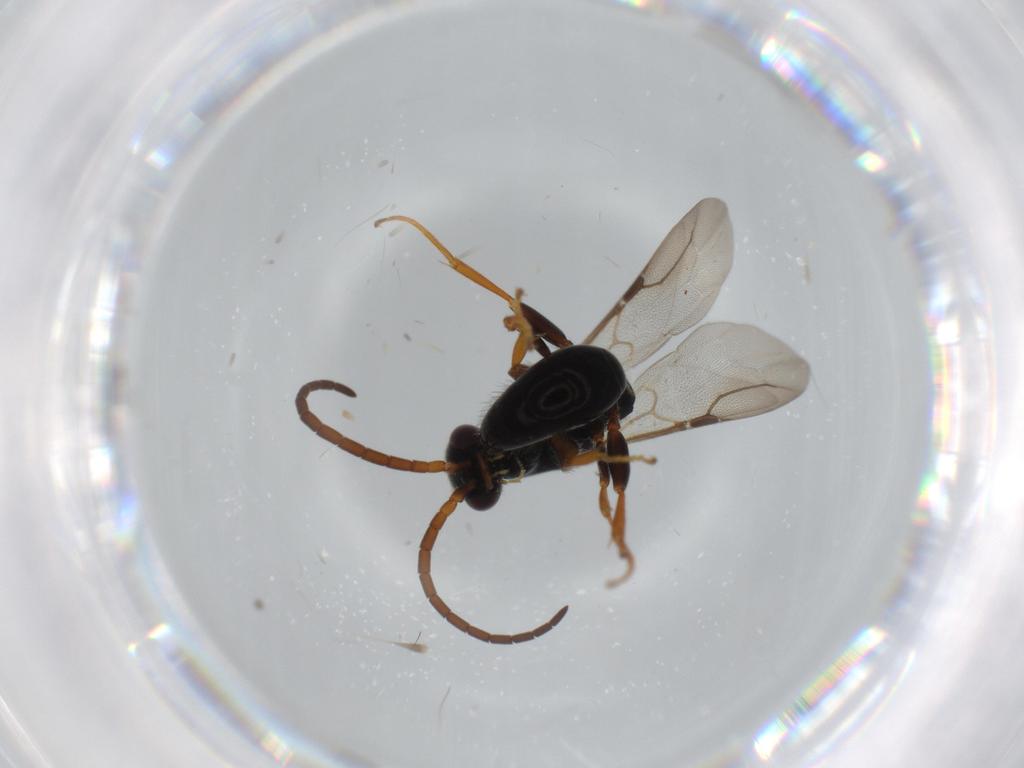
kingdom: Animalia
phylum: Arthropoda
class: Insecta
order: Hymenoptera
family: Bethylidae
